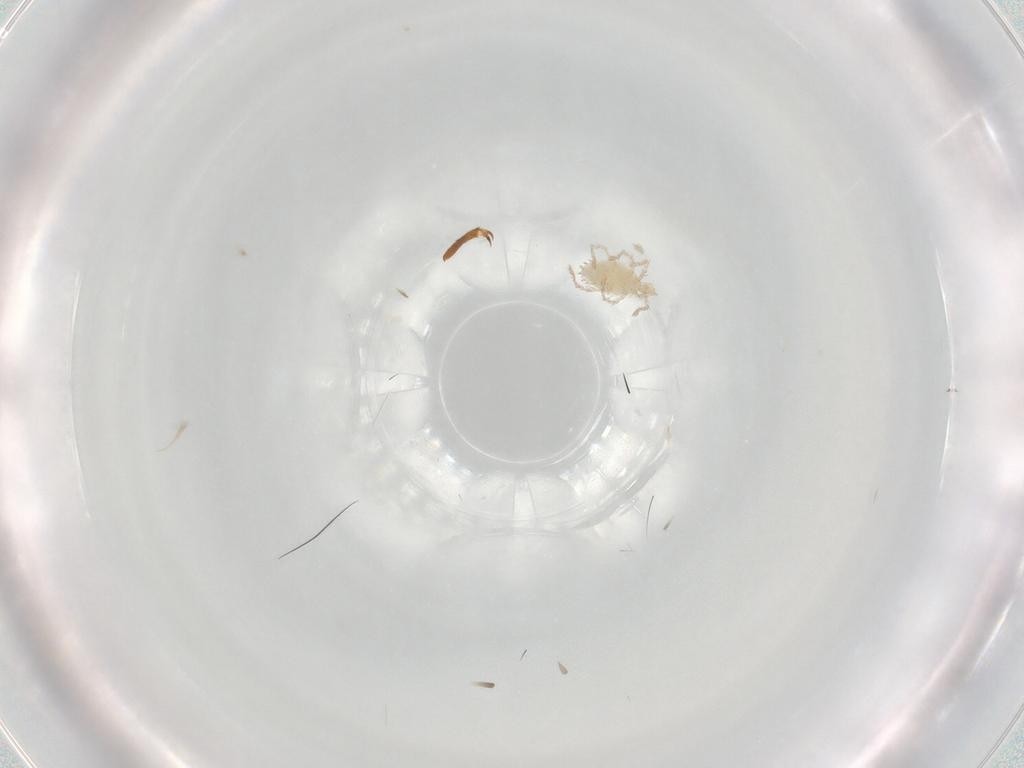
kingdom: Animalia
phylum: Arthropoda
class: Arachnida
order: Trombidiformes
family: Erythraeidae
